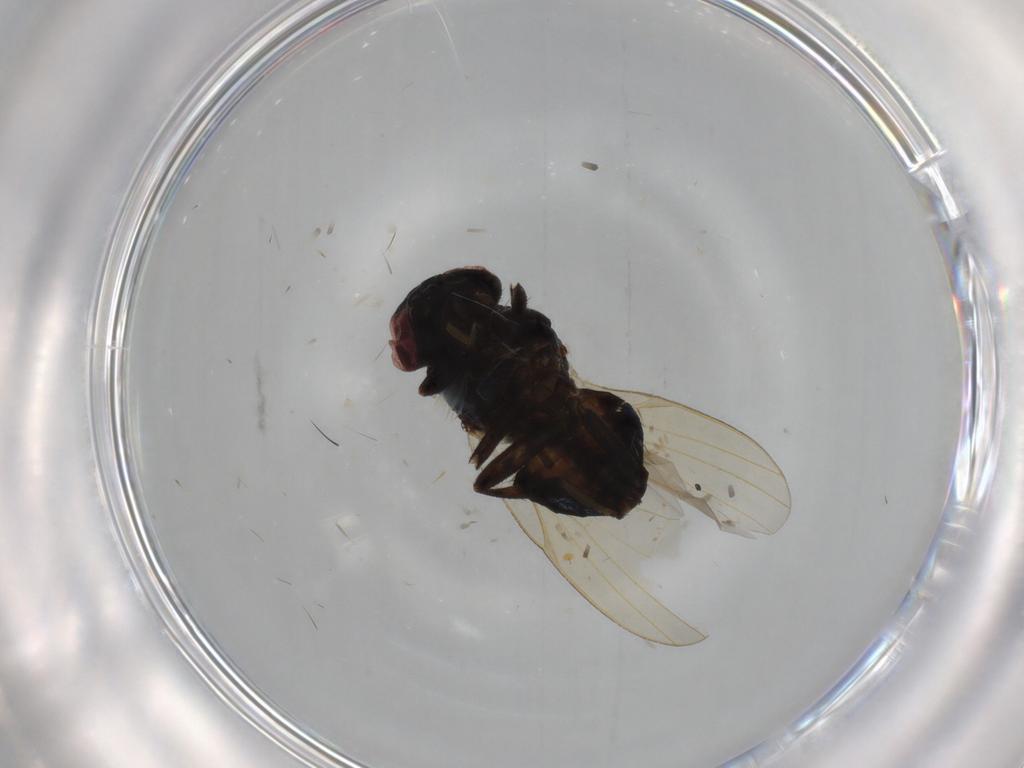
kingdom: Animalia
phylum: Arthropoda
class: Insecta
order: Diptera
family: Lonchaeidae
